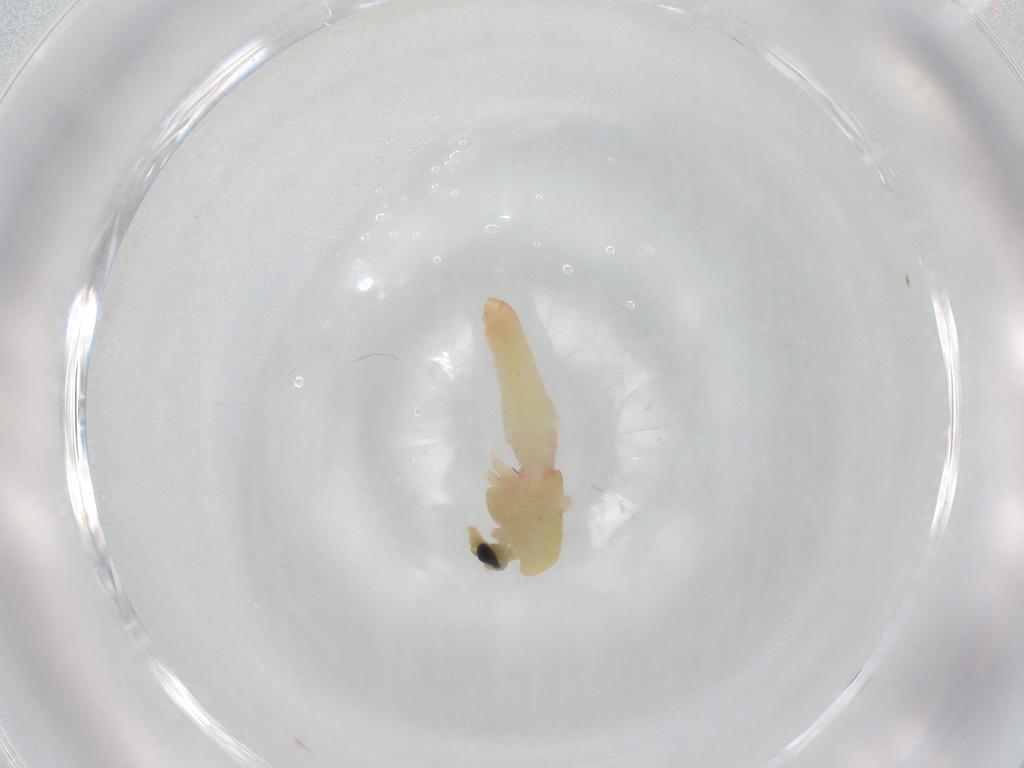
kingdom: Animalia
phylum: Arthropoda
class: Insecta
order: Diptera
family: Chironomidae
